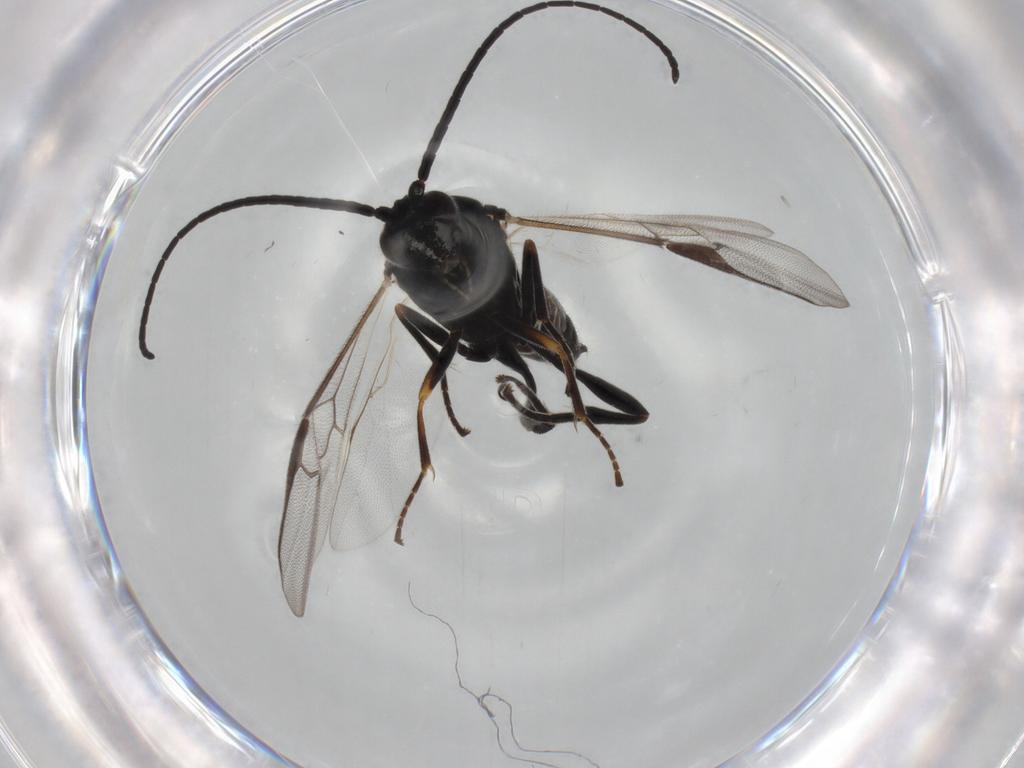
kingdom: Animalia
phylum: Arthropoda
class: Insecta
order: Hymenoptera
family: Braconidae
